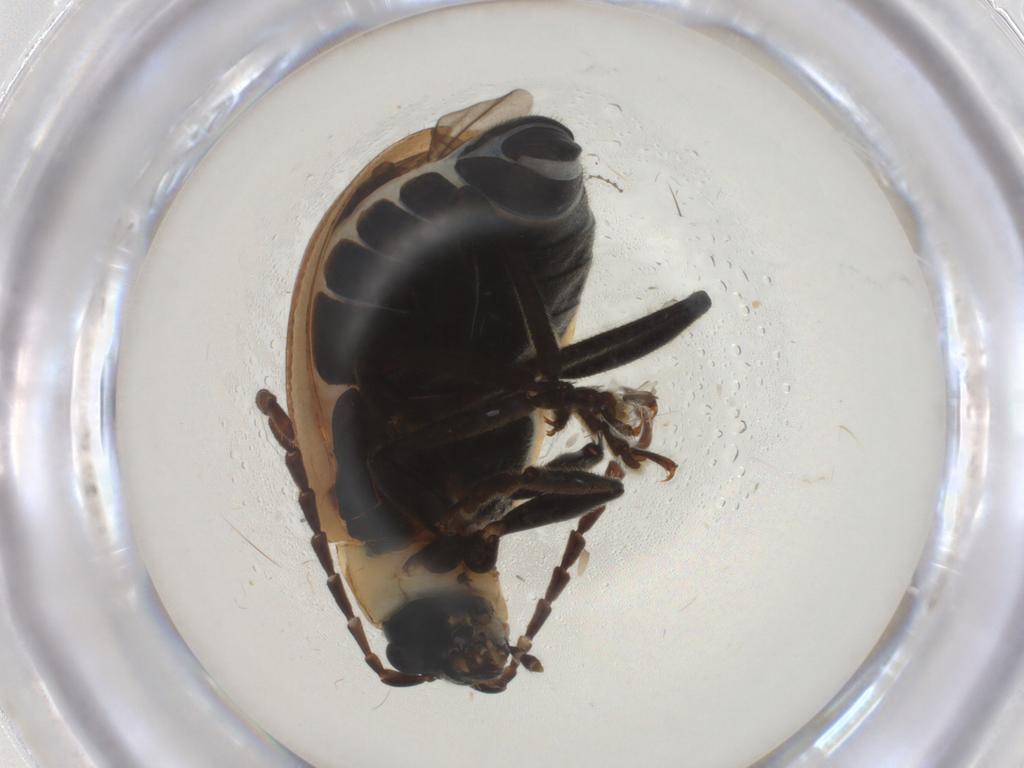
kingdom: Animalia
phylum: Arthropoda
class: Insecta
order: Coleoptera
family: Chrysomelidae
